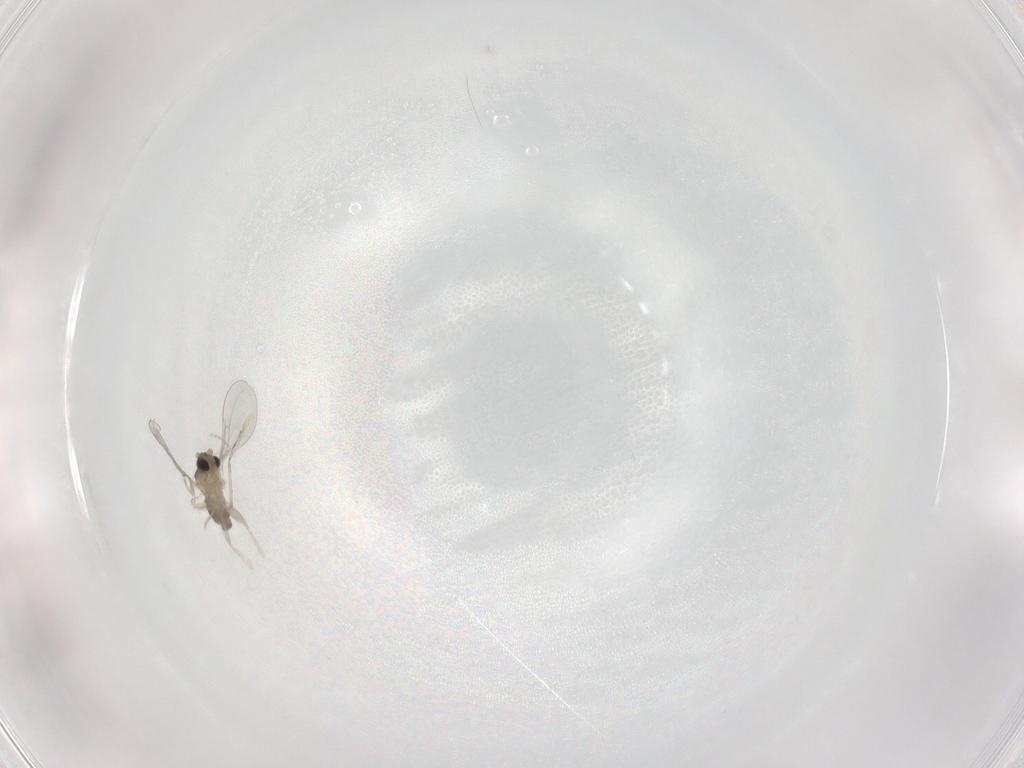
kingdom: Animalia
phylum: Arthropoda
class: Insecta
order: Diptera
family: Cecidomyiidae
